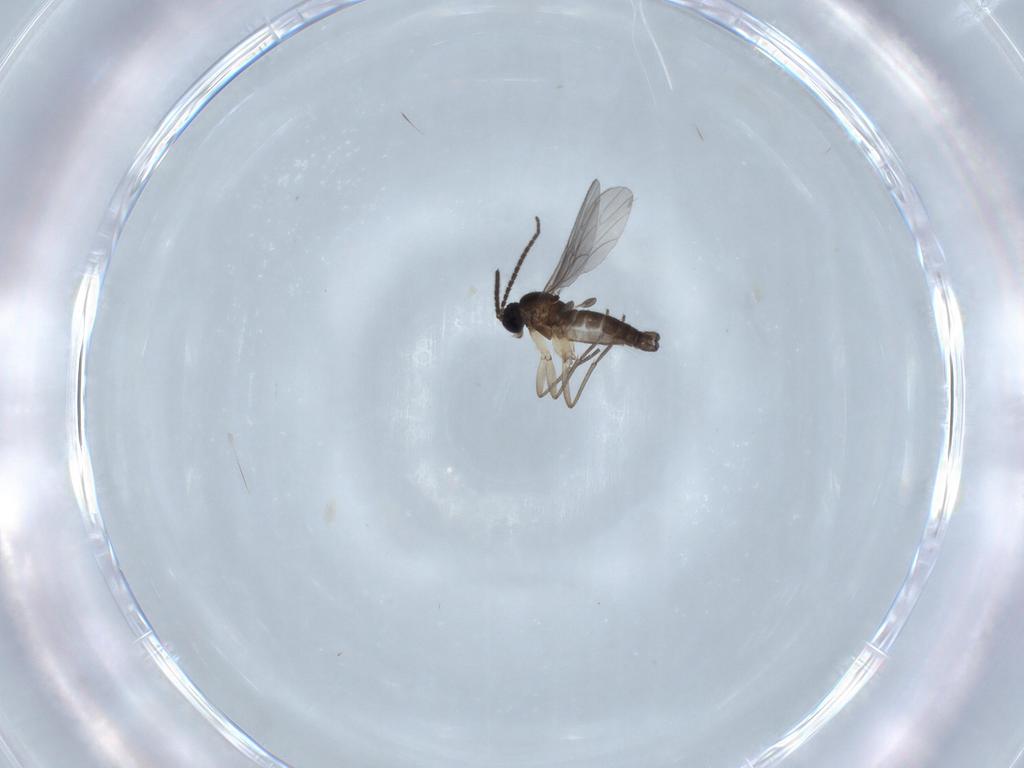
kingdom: Animalia
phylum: Arthropoda
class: Insecta
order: Diptera
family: Sciaridae
